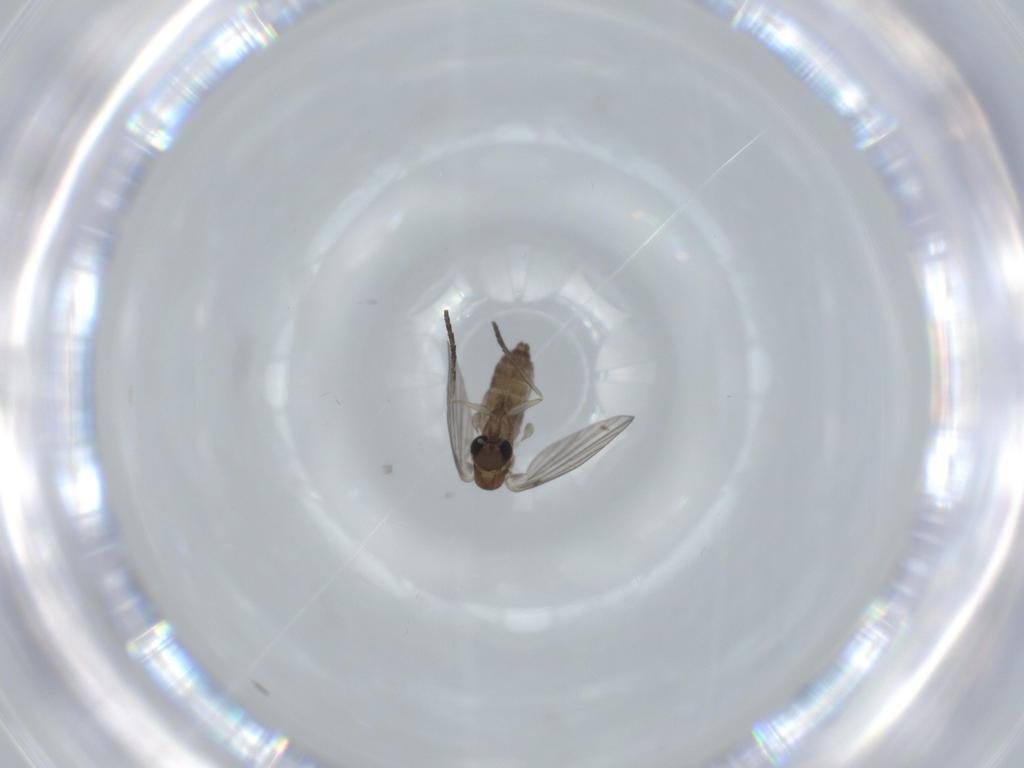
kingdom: Animalia
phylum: Arthropoda
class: Insecta
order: Diptera
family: Psychodidae
